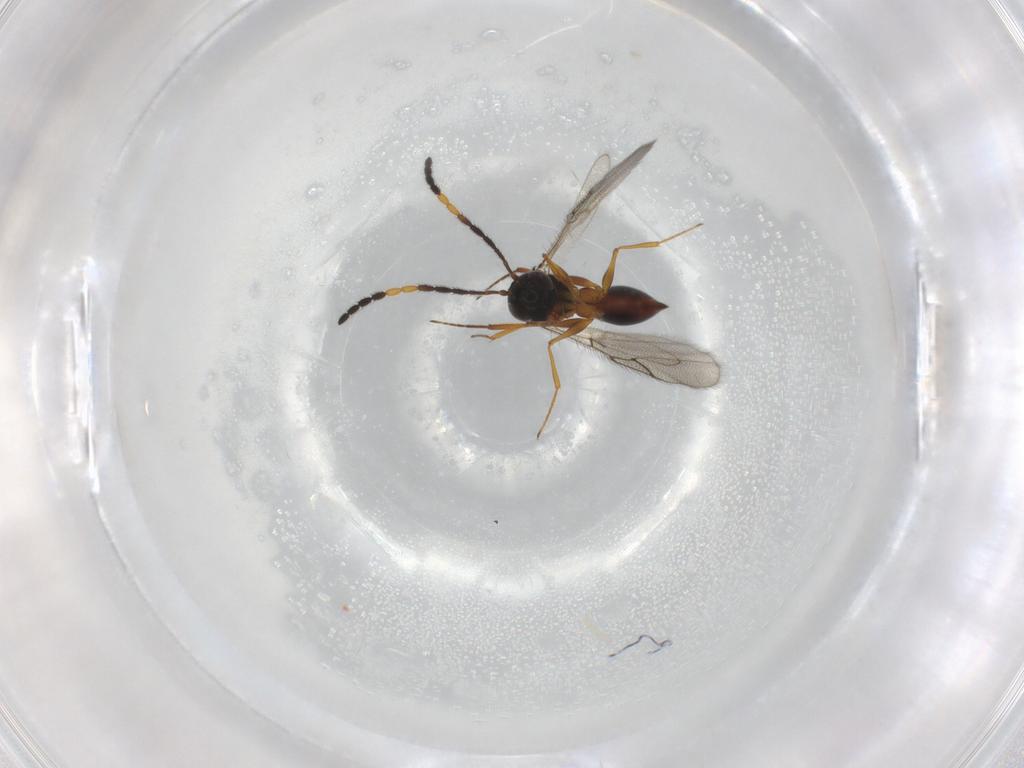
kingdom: Animalia
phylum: Arthropoda
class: Insecta
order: Hymenoptera
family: Figitidae
